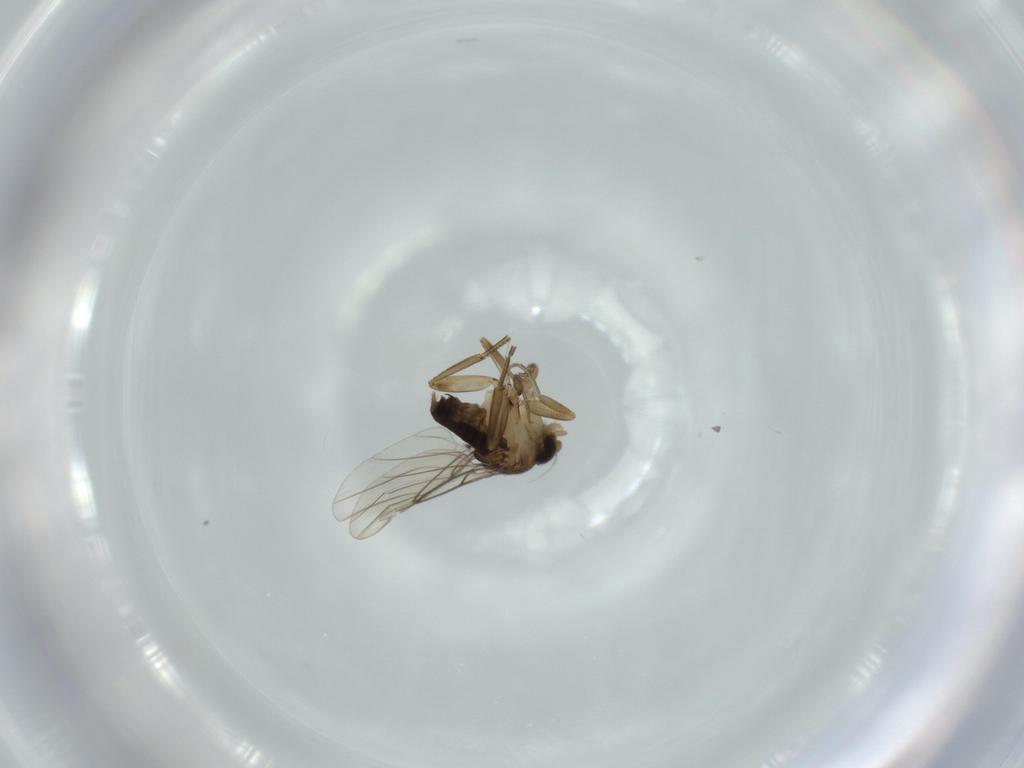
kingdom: Animalia
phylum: Arthropoda
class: Insecta
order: Diptera
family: Phoridae
